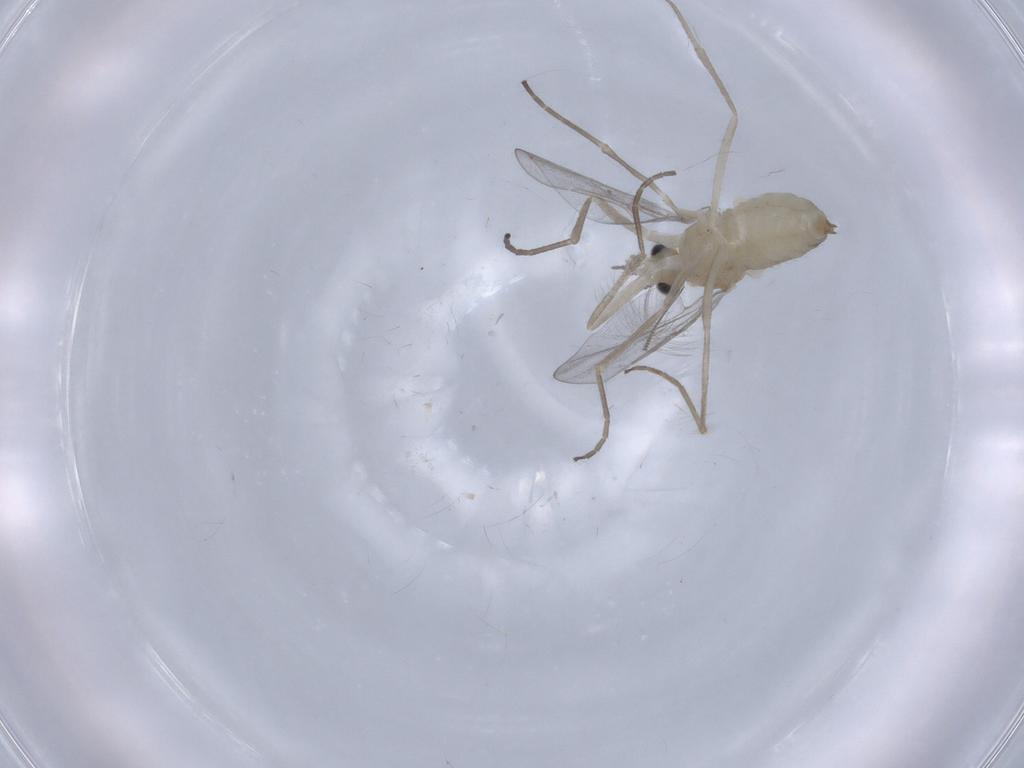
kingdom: Animalia
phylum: Arthropoda
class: Insecta
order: Diptera
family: Cecidomyiidae
